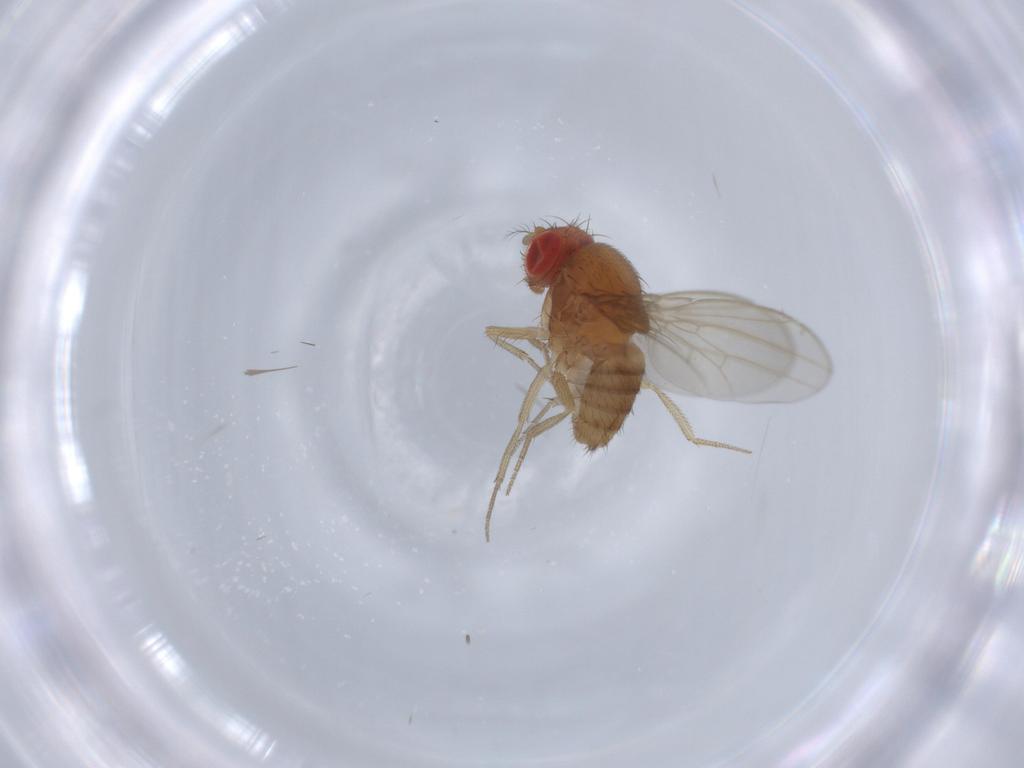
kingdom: Animalia
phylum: Arthropoda
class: Insecta
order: Diptera
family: Drosophilidae
